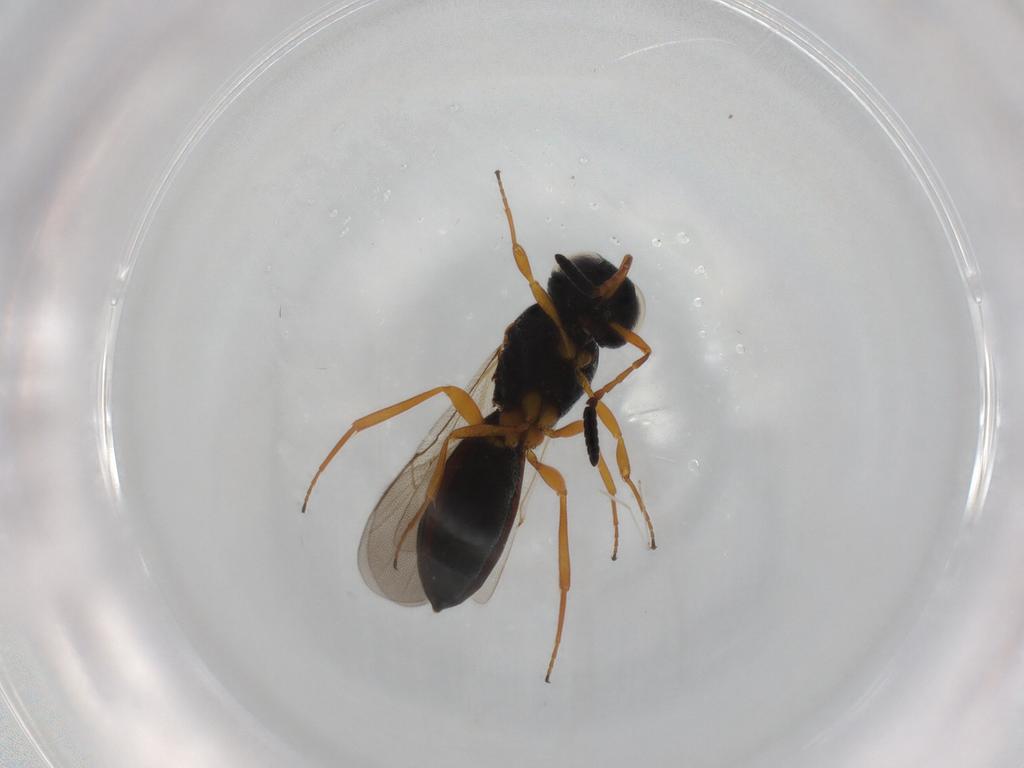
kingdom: Animalia
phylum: Arthropoda
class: Insecta
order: Hymenoptera
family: Scelionidae
